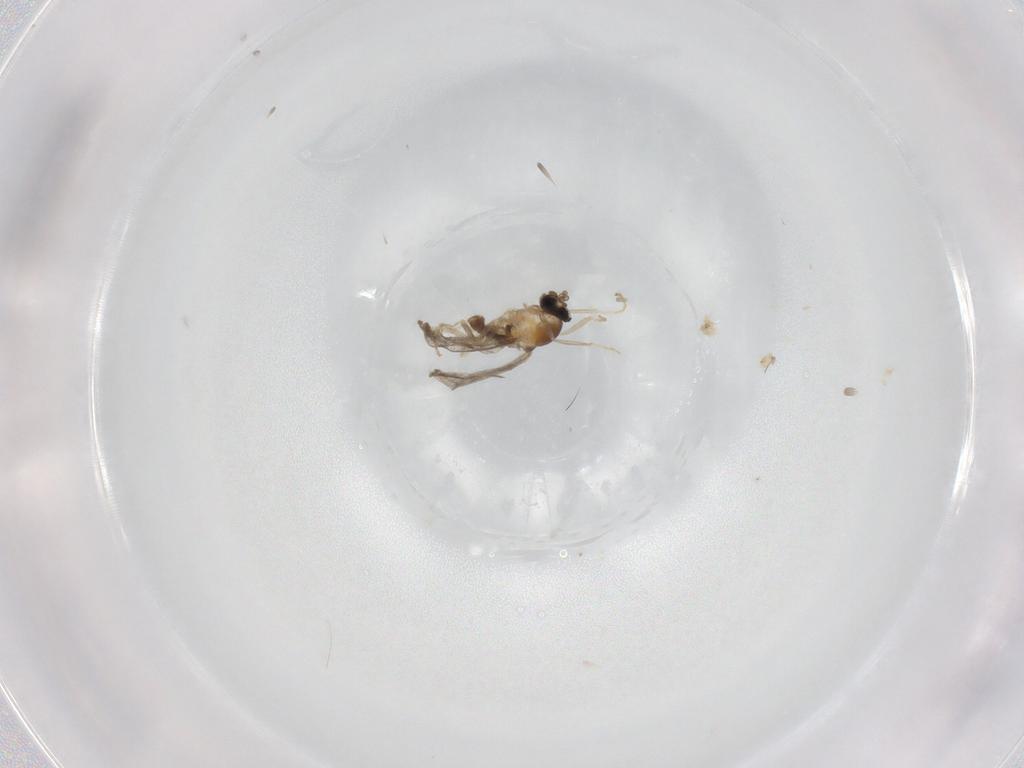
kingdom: Animalia
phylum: Arthropoda
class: Insecta
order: Diptera
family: Cecidomyiidae
